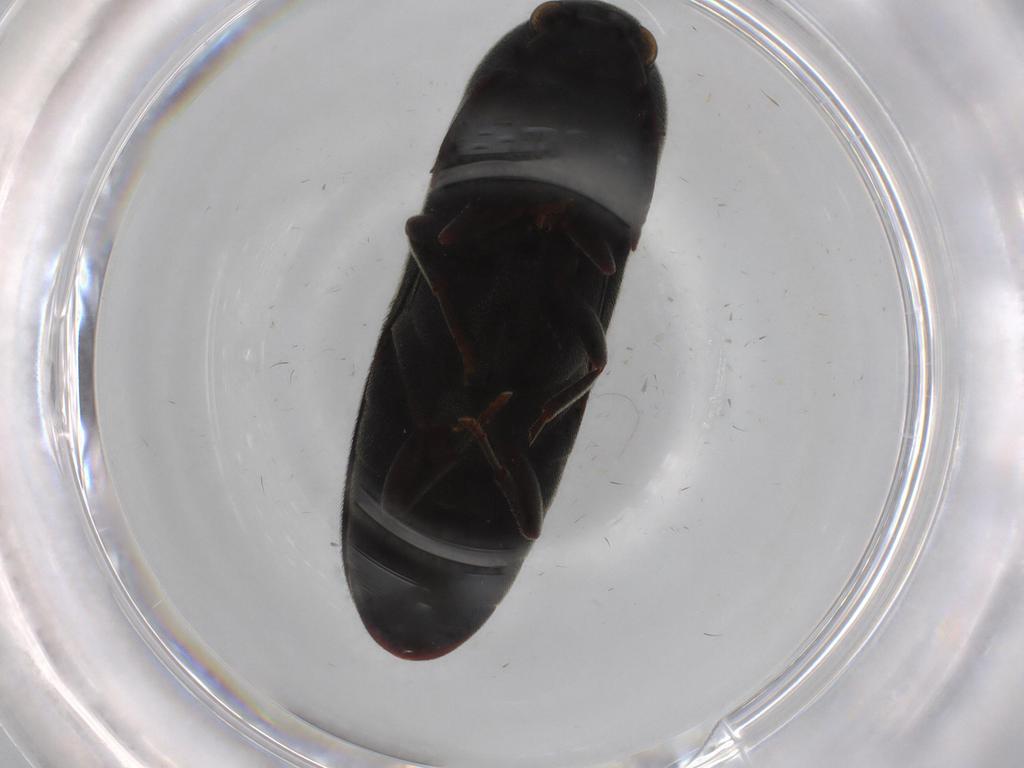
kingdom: Animalia
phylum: Arthropoda
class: Insecta
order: Coleoptera
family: Eucnemidae
